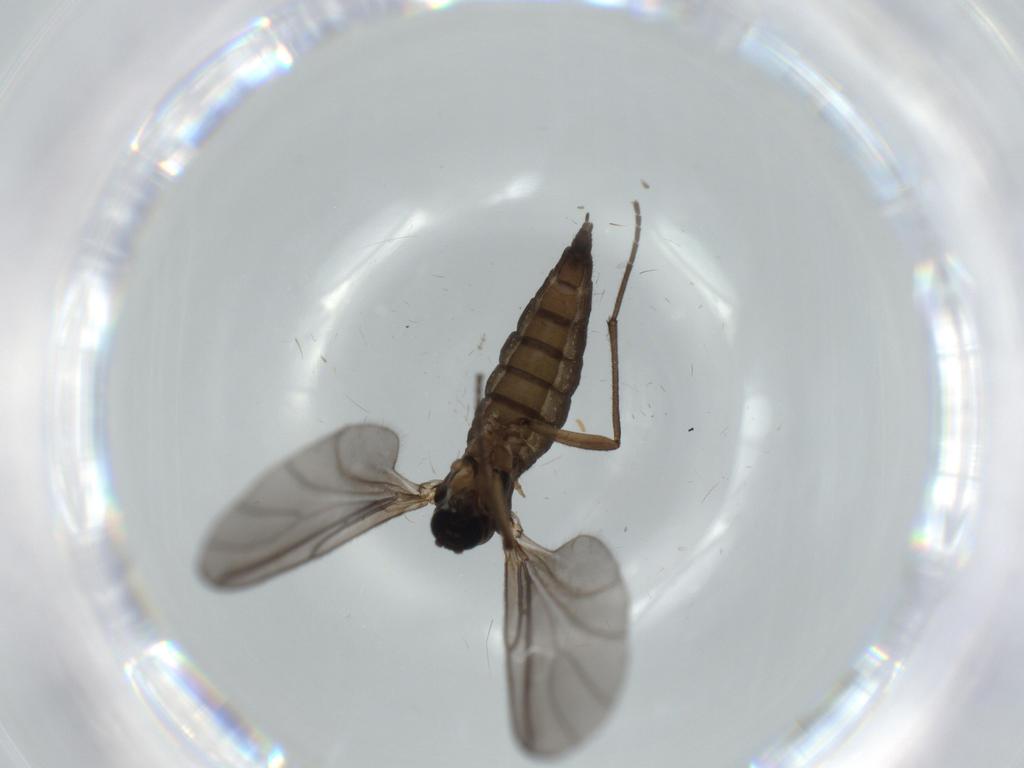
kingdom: Animalia
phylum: Arthropoda
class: Insecta
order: Diptera
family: Sciaridae
